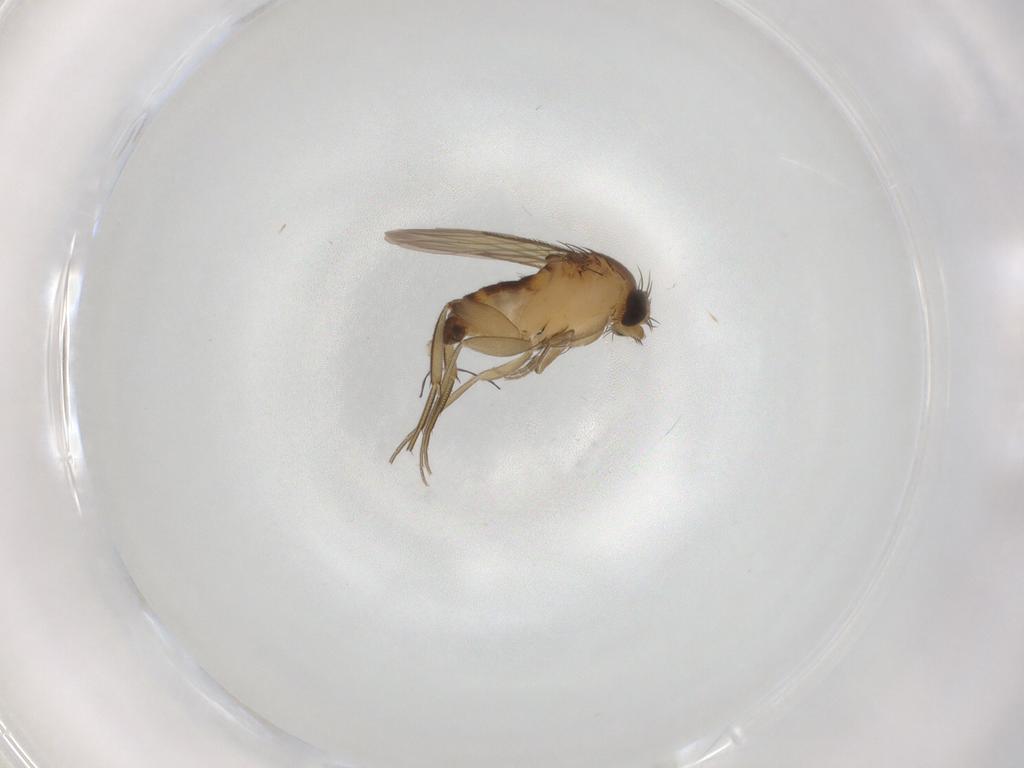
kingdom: Animalia
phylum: Arthropoda
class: Insecta
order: Diptera
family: Phoridae
